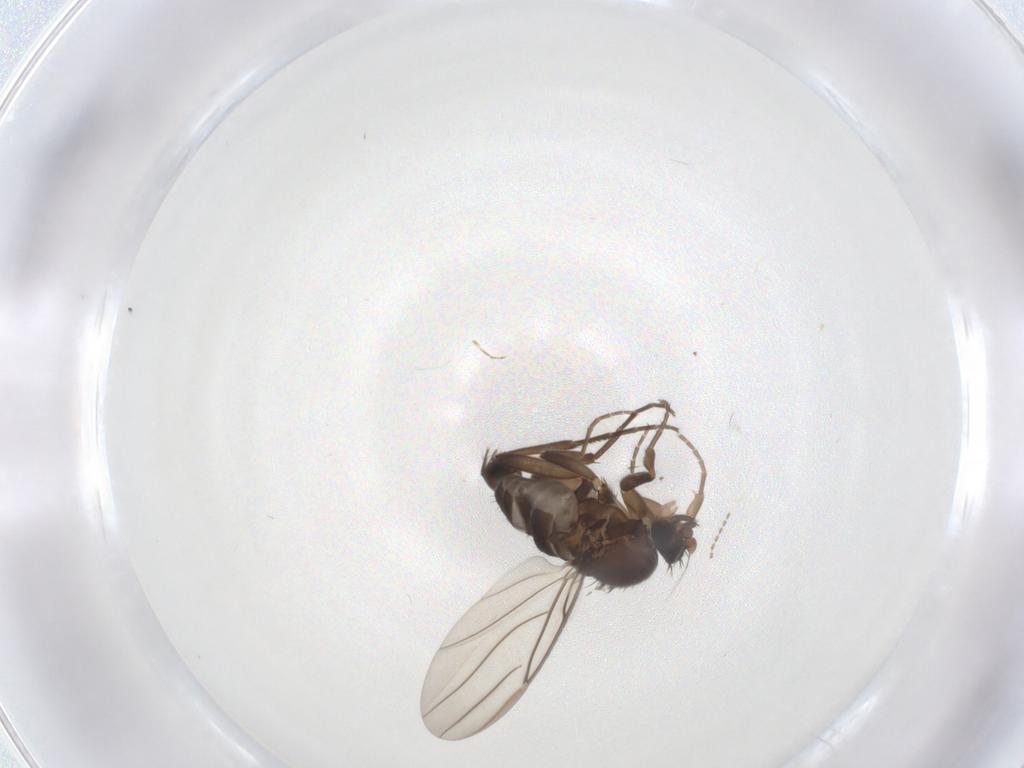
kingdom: Animalia
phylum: Arthropoda
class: Insecta
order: Diptera
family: Cecidomyiidae
